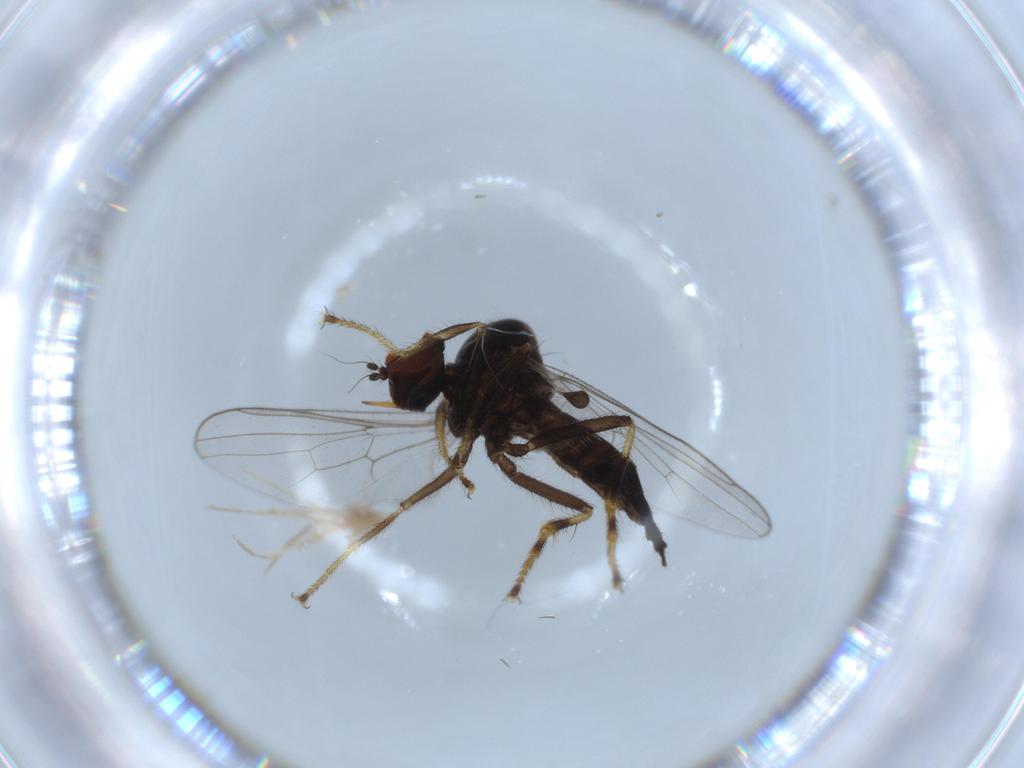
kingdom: Animalia
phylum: Arthropoda
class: Insecta
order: Diptera
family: Hybotidae
